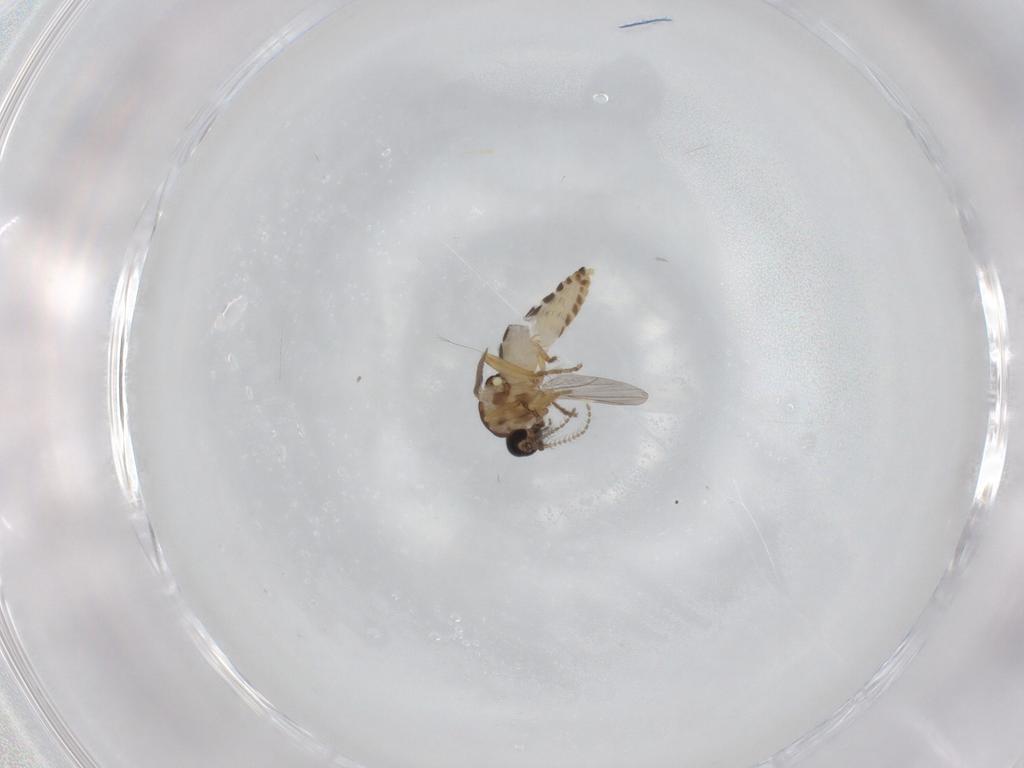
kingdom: Animalia
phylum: Arthropoda
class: Insecta
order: Diptera
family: Ceratopogonidae
